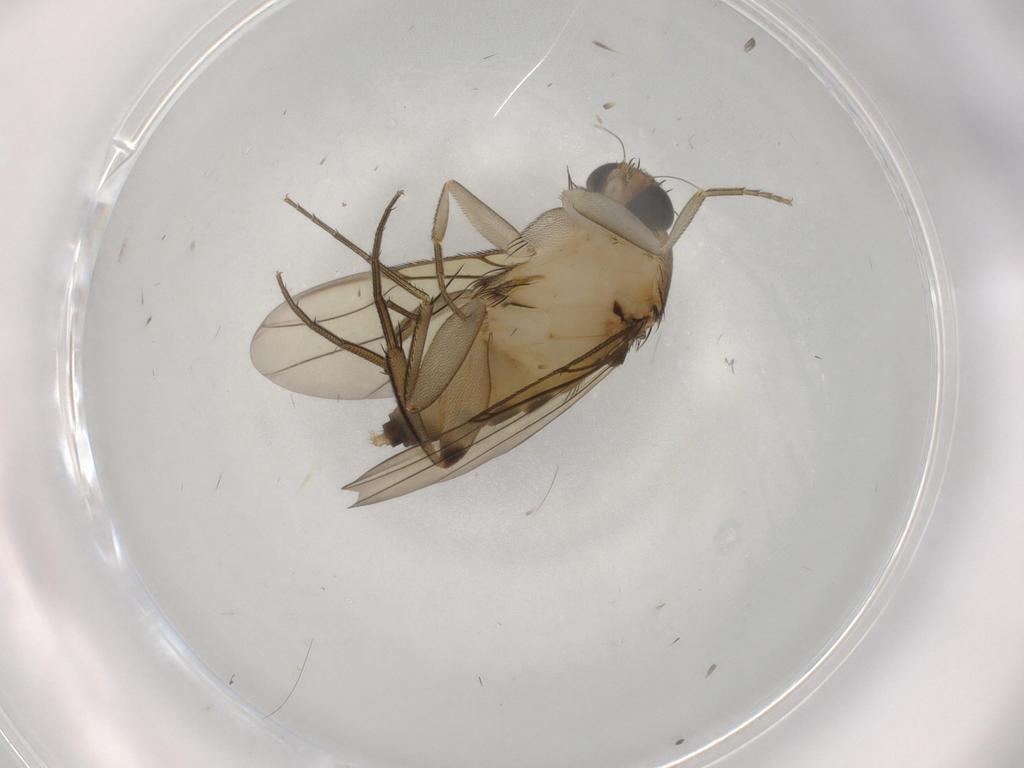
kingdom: Animalia
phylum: Arthropoda
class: Insecta
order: Diptera
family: Phoridae
